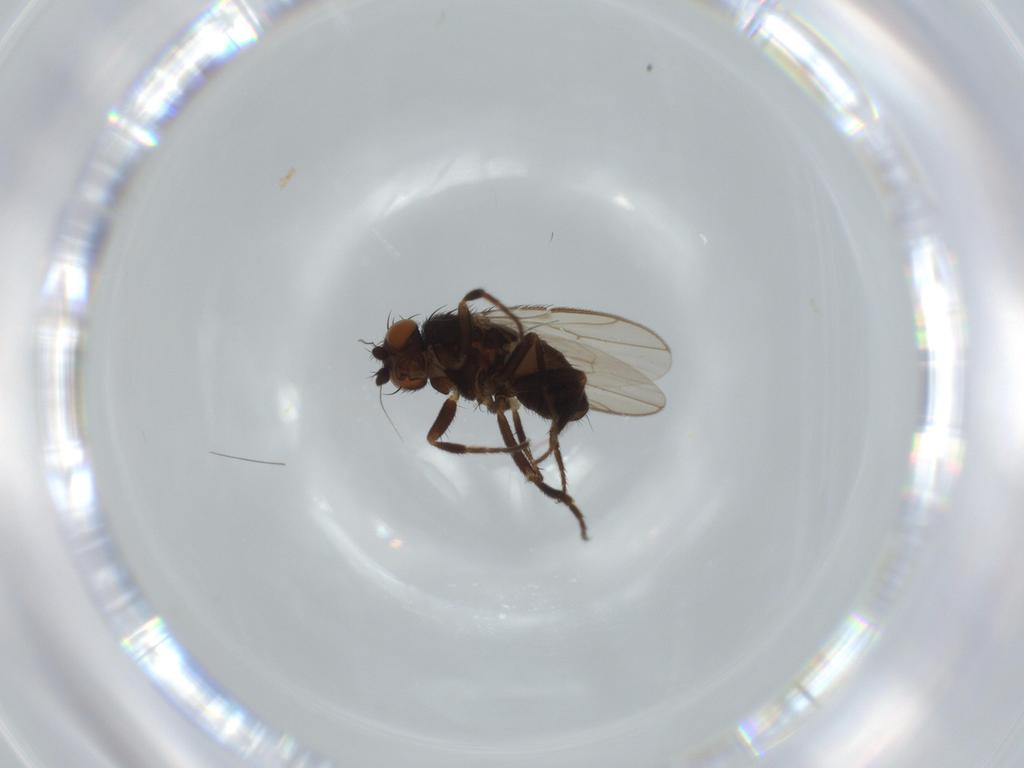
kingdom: Animalia
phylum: Arthropoda
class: Insecta
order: Diptera
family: Sphaeroceridae
